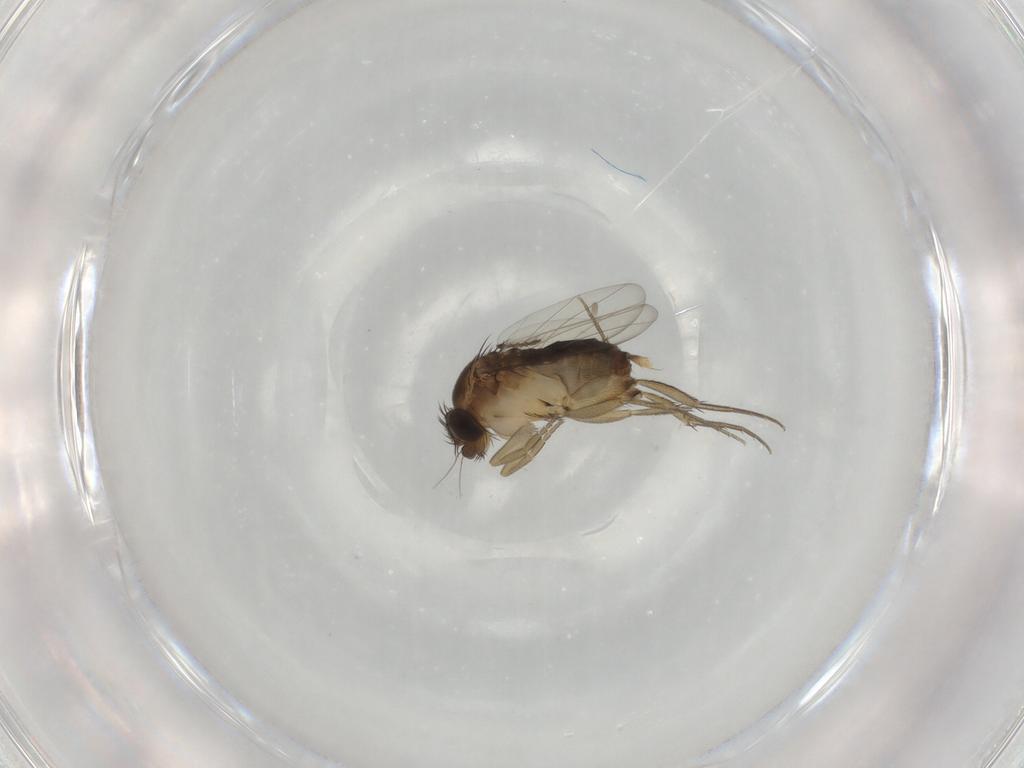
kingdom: Animalia
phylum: Arthropoda
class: Insecta
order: Diptera
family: Phoridae
